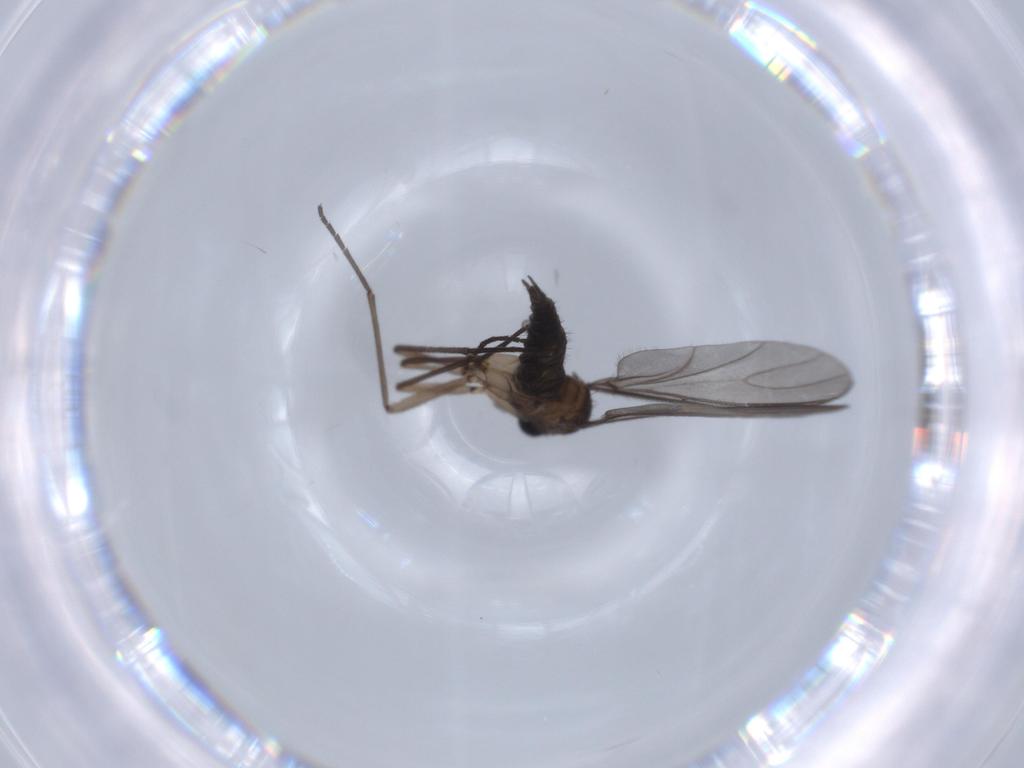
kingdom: Animalia
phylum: Arthropoda
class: Insecta
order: Diptera
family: Sciaridae
